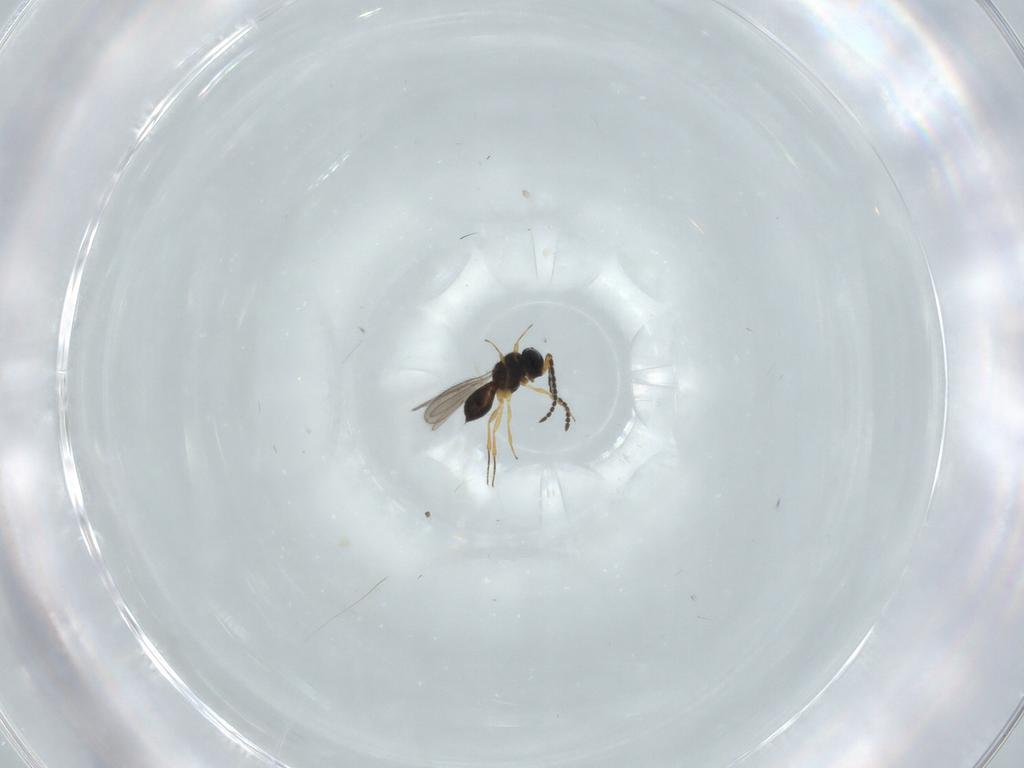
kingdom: Animalia
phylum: Arthropoda
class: Insecta
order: Hymenoptera
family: Scelionidae
